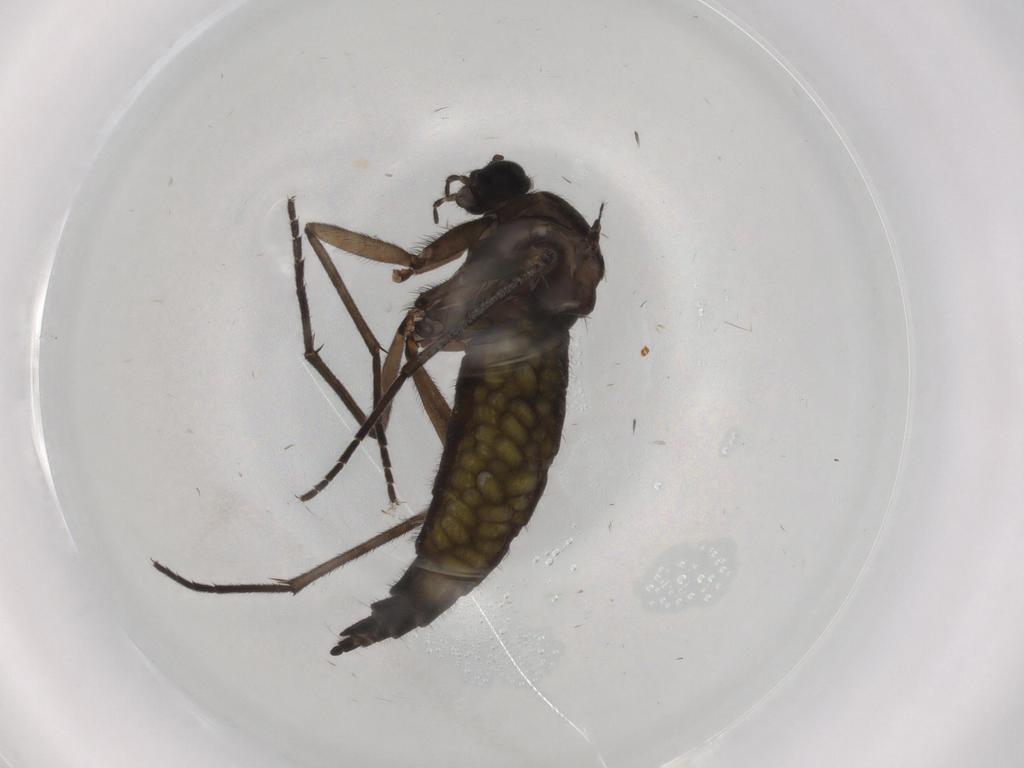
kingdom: Animalia
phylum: Arthropoda
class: Insecta
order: Diptera
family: Sciaridae
